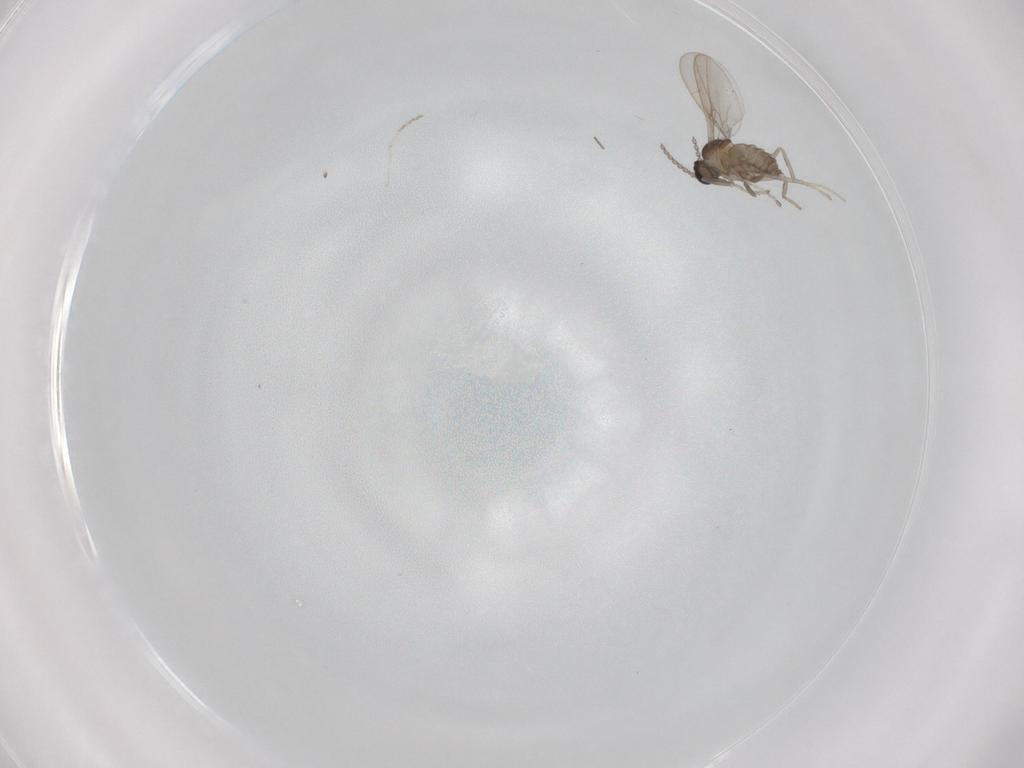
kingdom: Animalia
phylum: Arthropoda
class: Insecta
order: Diptera
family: Cecidomyiidae
